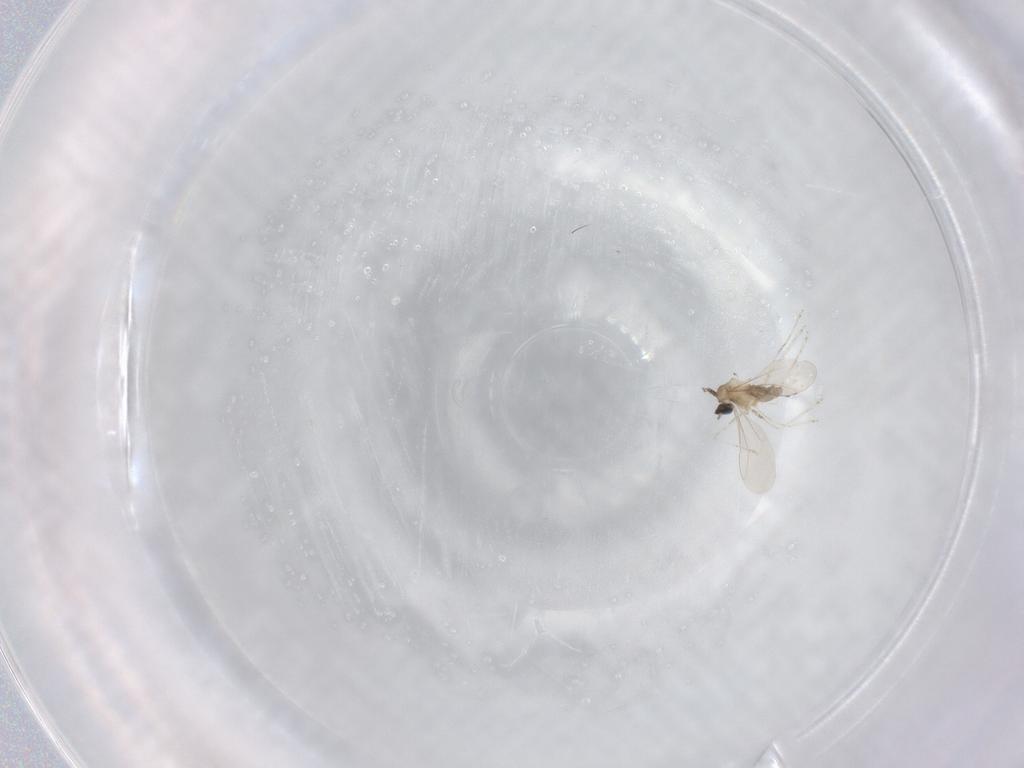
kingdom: Animalia
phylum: Arthropoda
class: Insecta
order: Diptera
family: Ceratopogonidae
